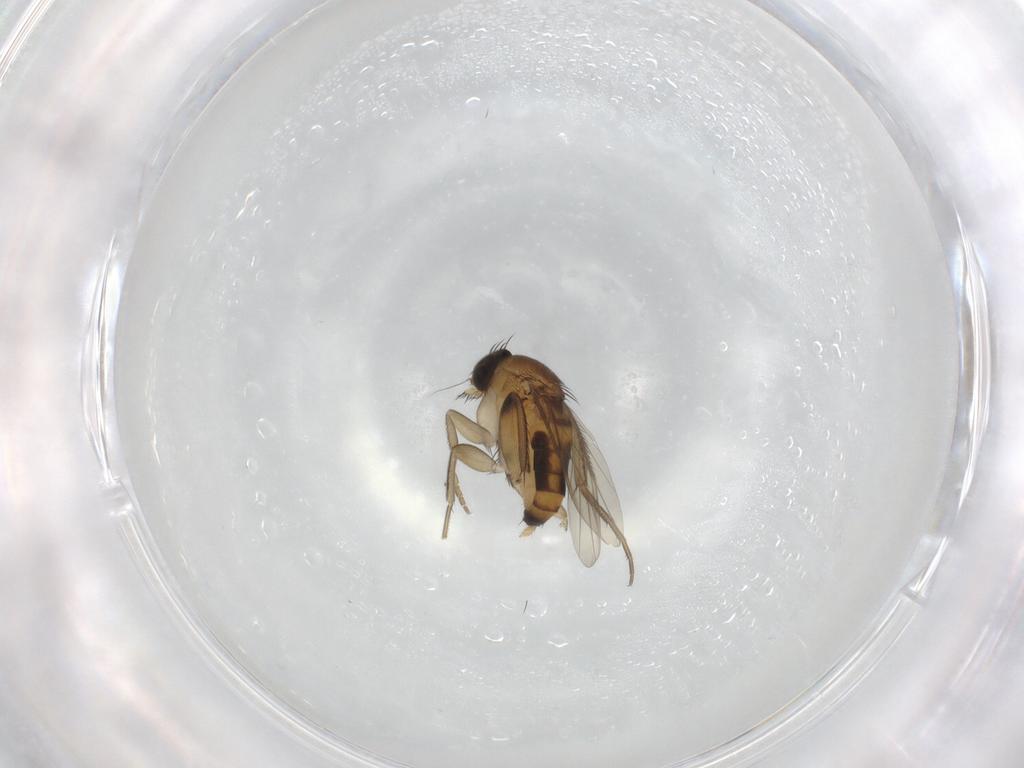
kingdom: Animalia
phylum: Arthropoda
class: Insecta
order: Diptera
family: Phoridae
